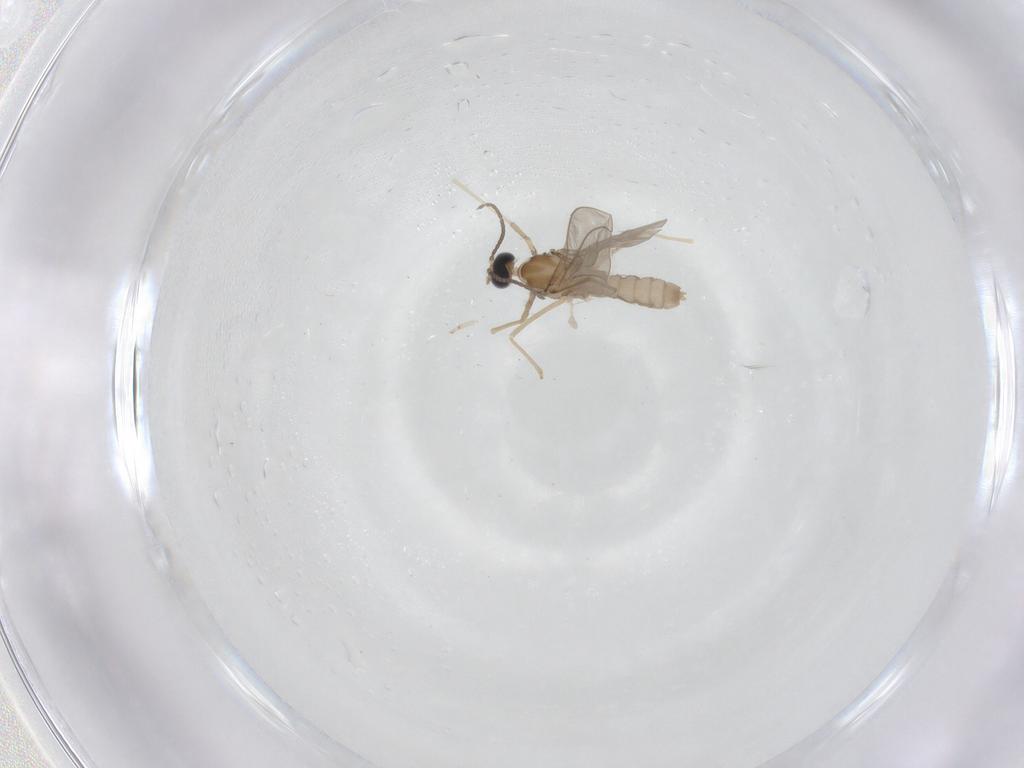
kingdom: Animalia
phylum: Arthropoda
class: Insecta
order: Diptera
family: Cecidomyiidae
